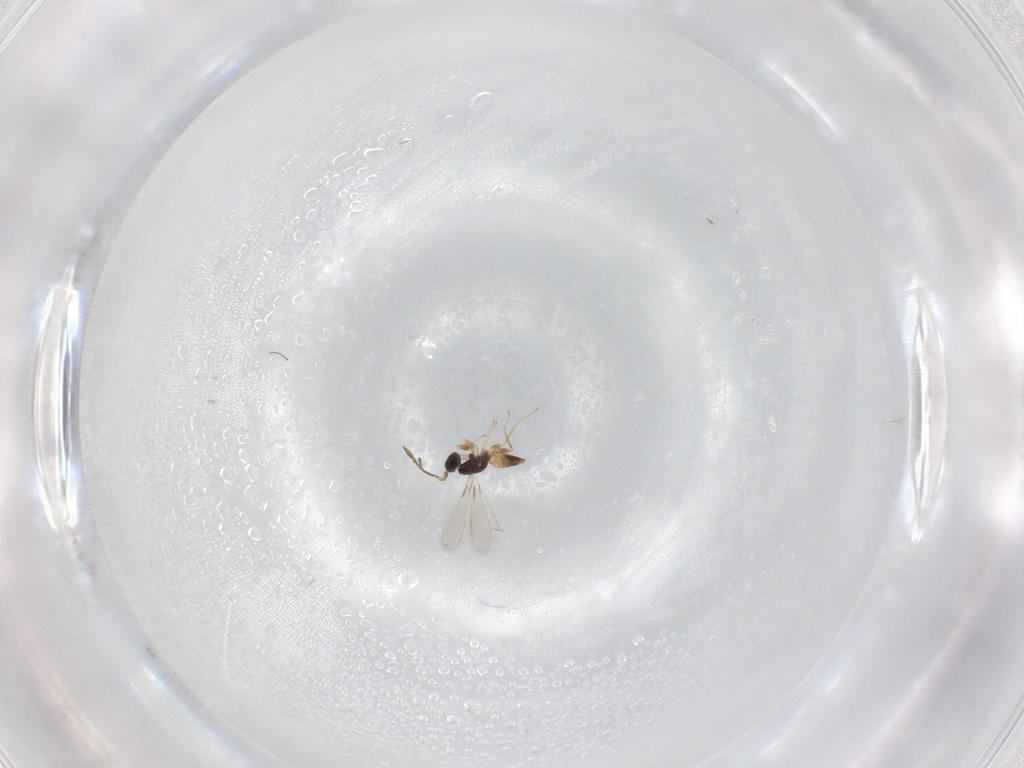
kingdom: Animalia
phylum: Arthropoda
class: Insecta
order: Hymenoptera
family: Mymaridae
